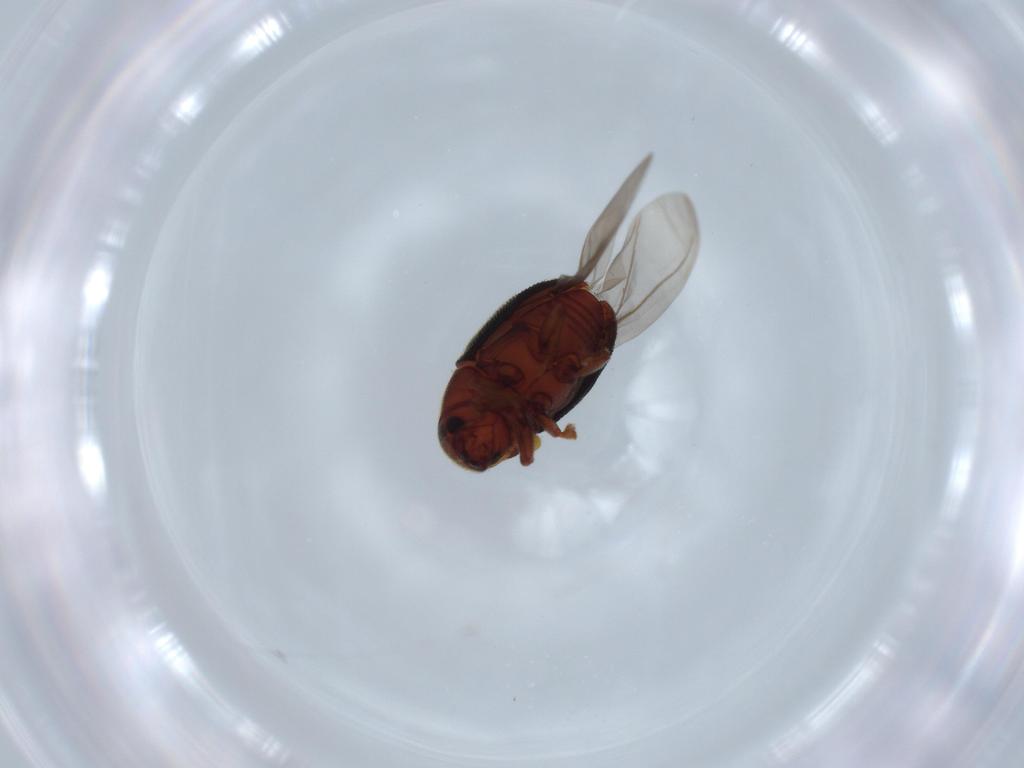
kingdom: Animalia
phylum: Arthropoda
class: Insecta
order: Coleoptera
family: Curculionidae
